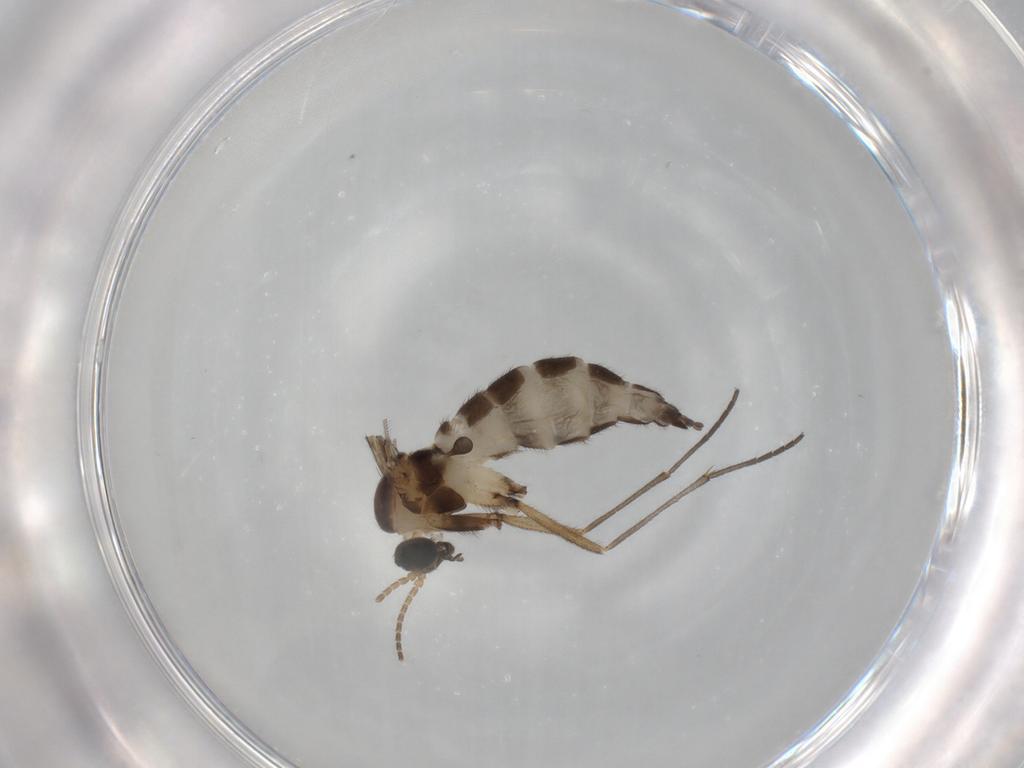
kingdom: Animalia
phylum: Arthropoda
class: Insecta
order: Diptera
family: Sciaridae
